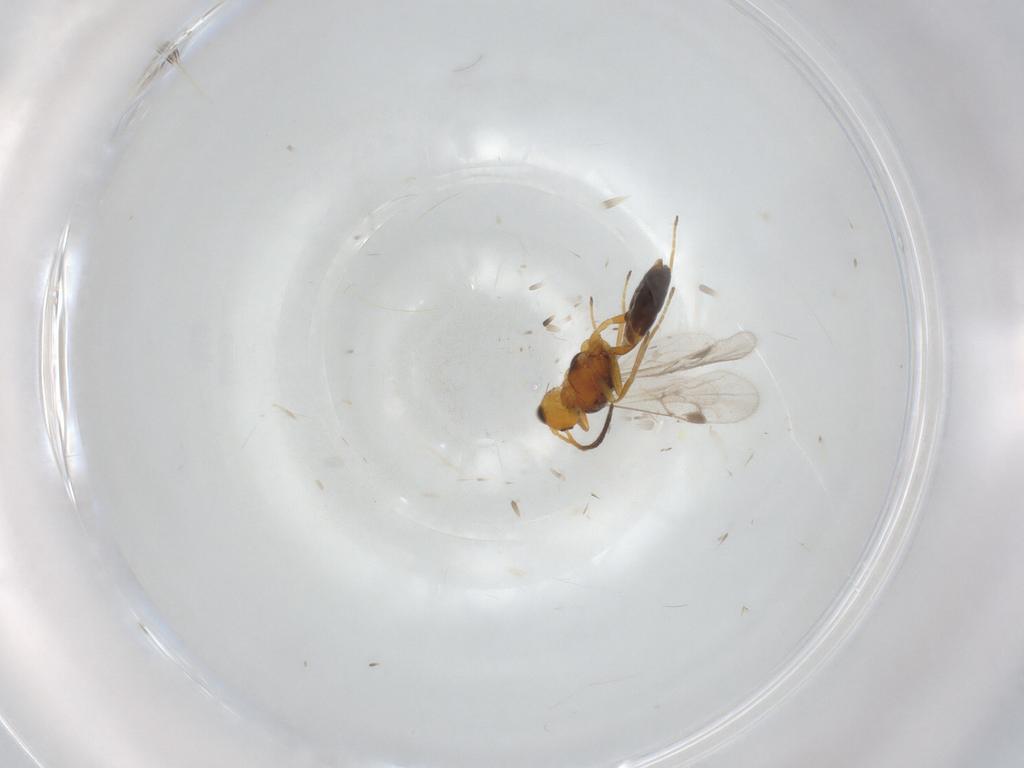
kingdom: Animalia
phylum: Arthropoda
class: Insecta
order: Hymenoptera
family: Braconidae
